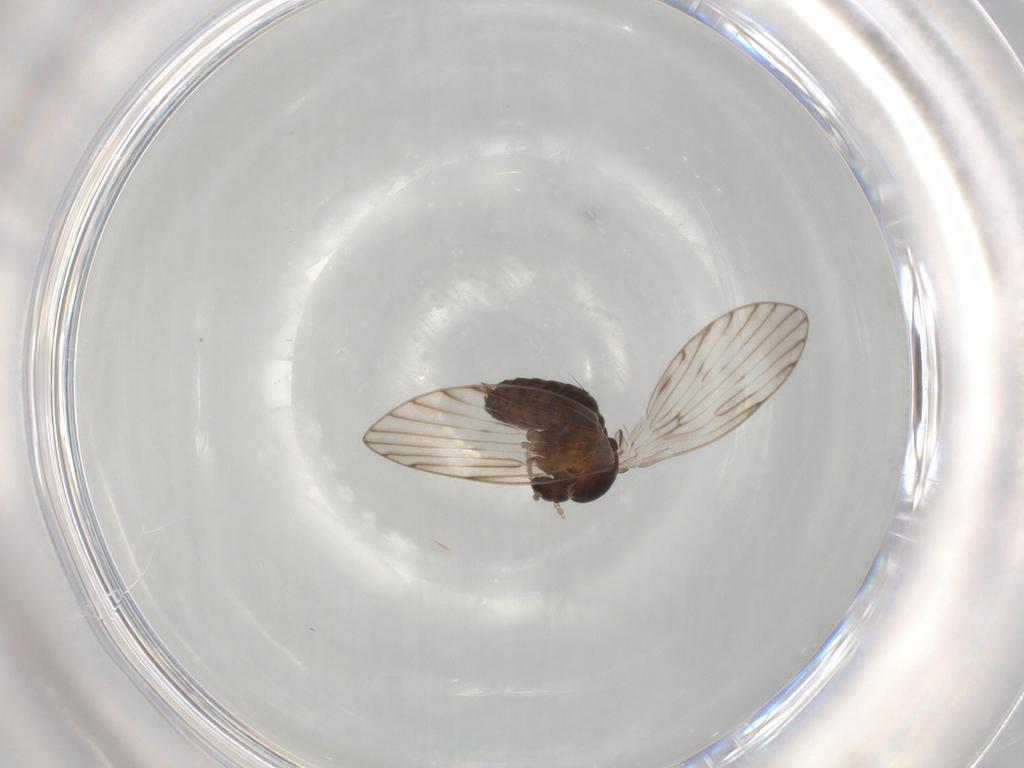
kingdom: Animalia
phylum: Arthropoda
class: Insecta
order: Diptera
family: Psychodidae
